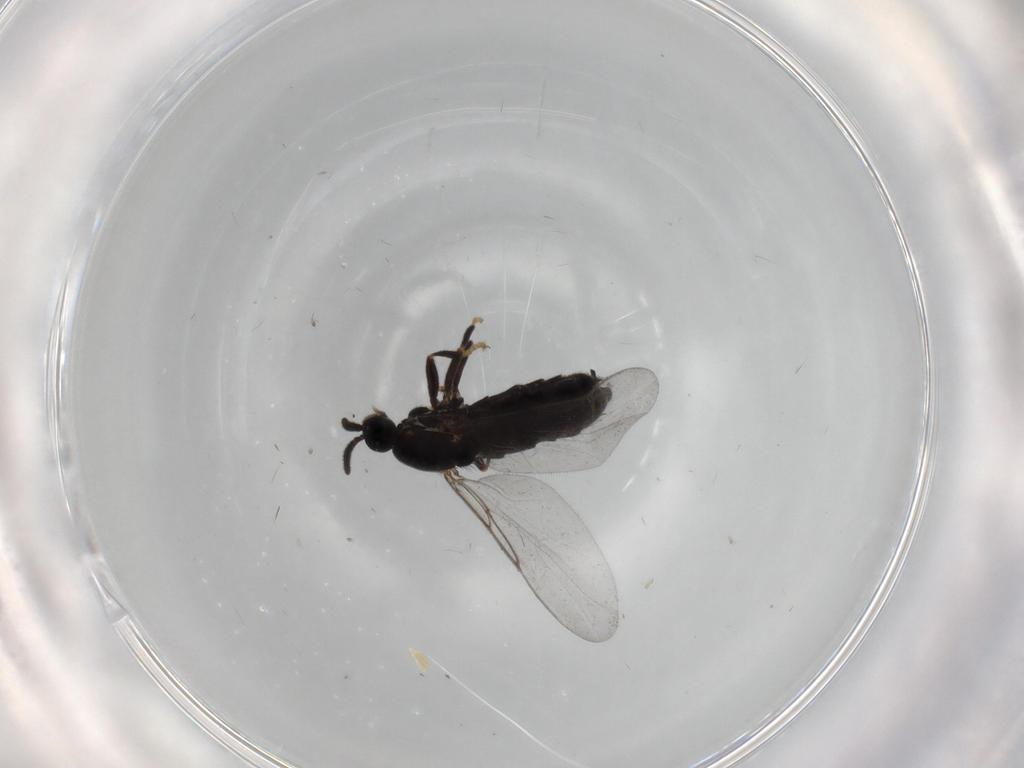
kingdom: Animalia
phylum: Arthropoda
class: Insecta
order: Diptera
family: Scatopsidae
